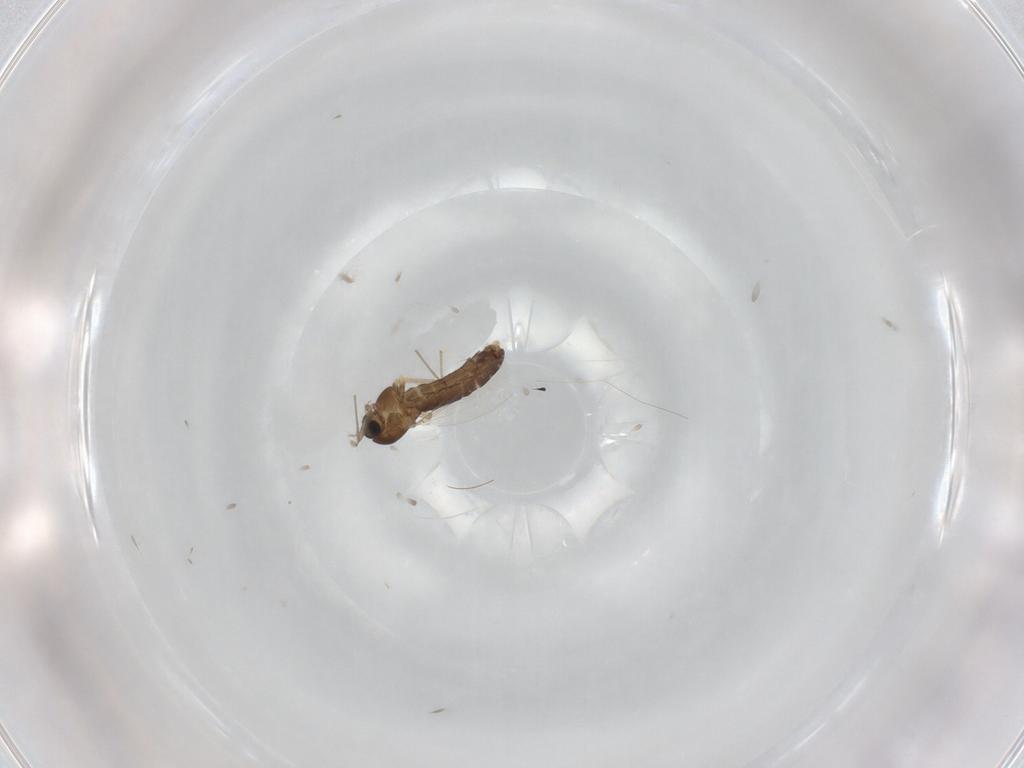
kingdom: Animalia
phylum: Arthropoda
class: Insecta
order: Diptera
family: Chironomidae
